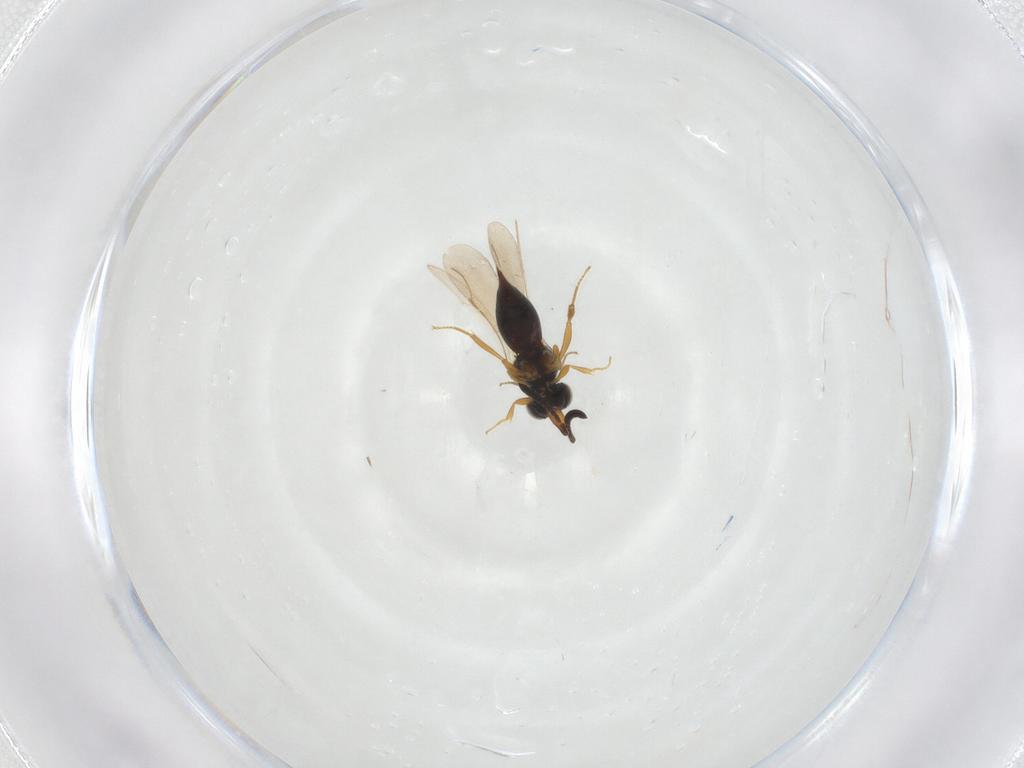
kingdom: Animalia
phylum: Arthropoda
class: Insecta
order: Diptera
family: Cecidomyiidae
